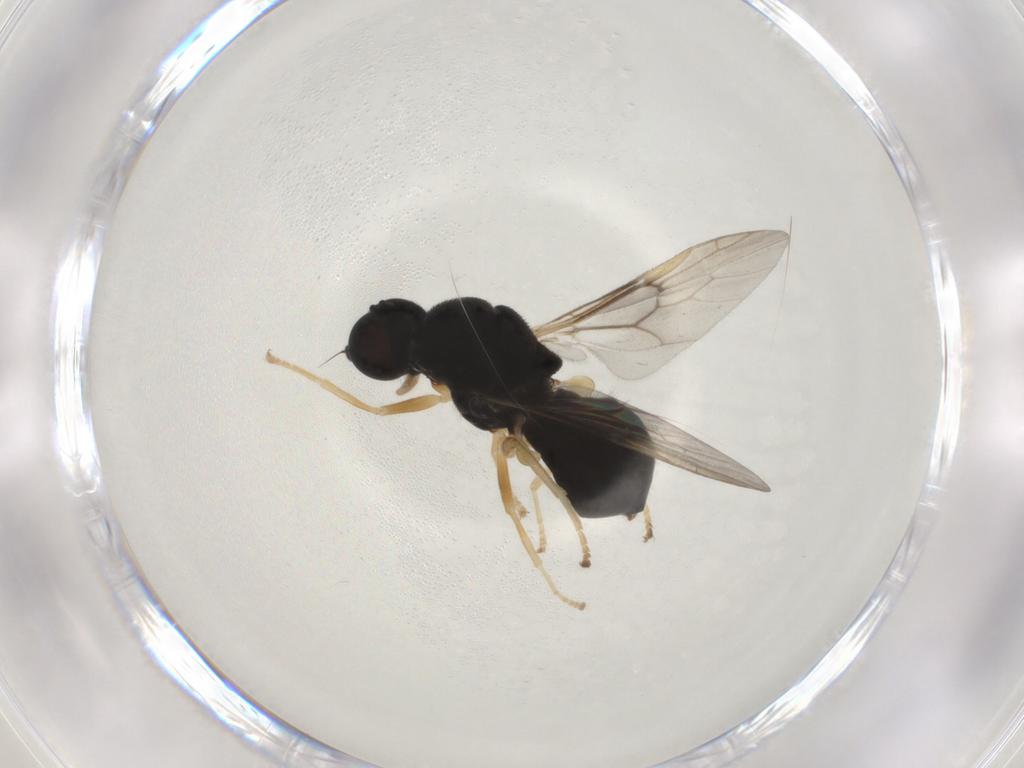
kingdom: Animalia
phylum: Arthropoda
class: Insecta
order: Diptera
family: Stratiomyidae
